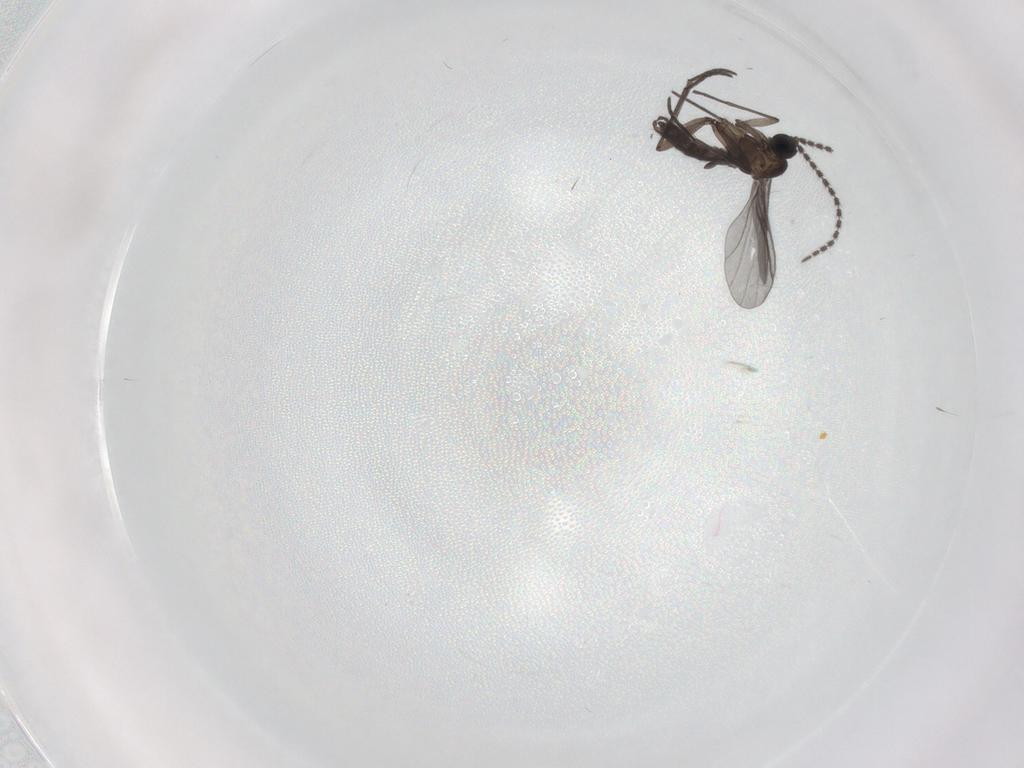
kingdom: Animalia
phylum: Arthropoda
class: Insecta
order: Diptera
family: Chironomidae
